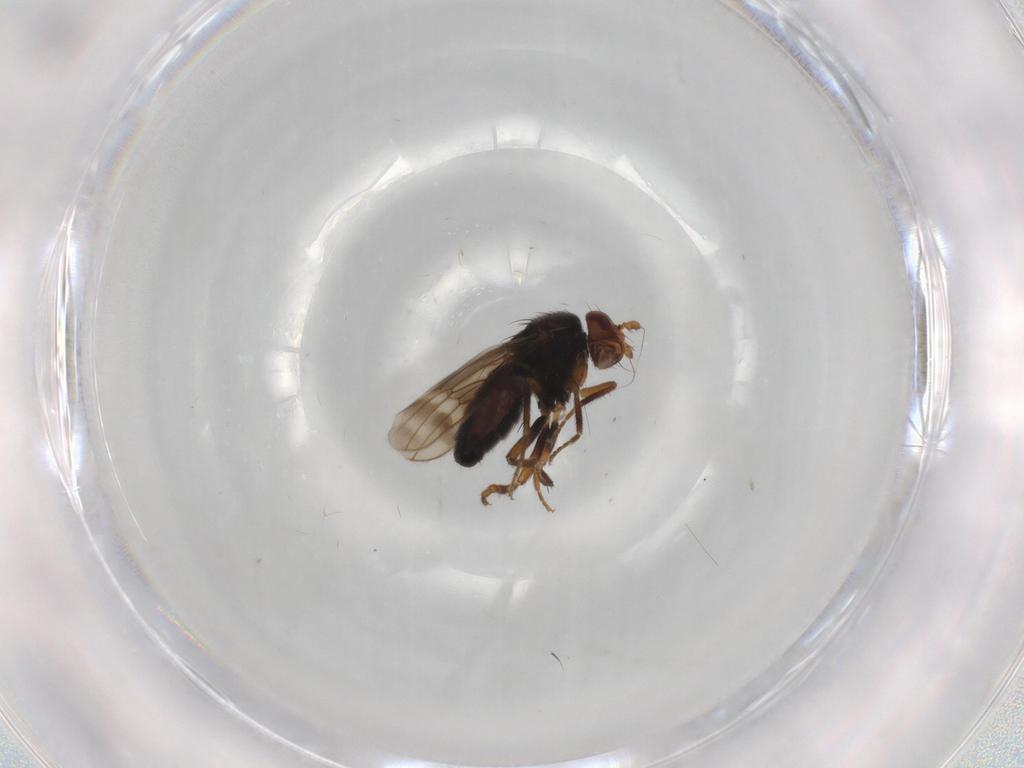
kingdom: Animalia
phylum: Arthropoda
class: Insecta
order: Diptera
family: Sphaeroceridae
